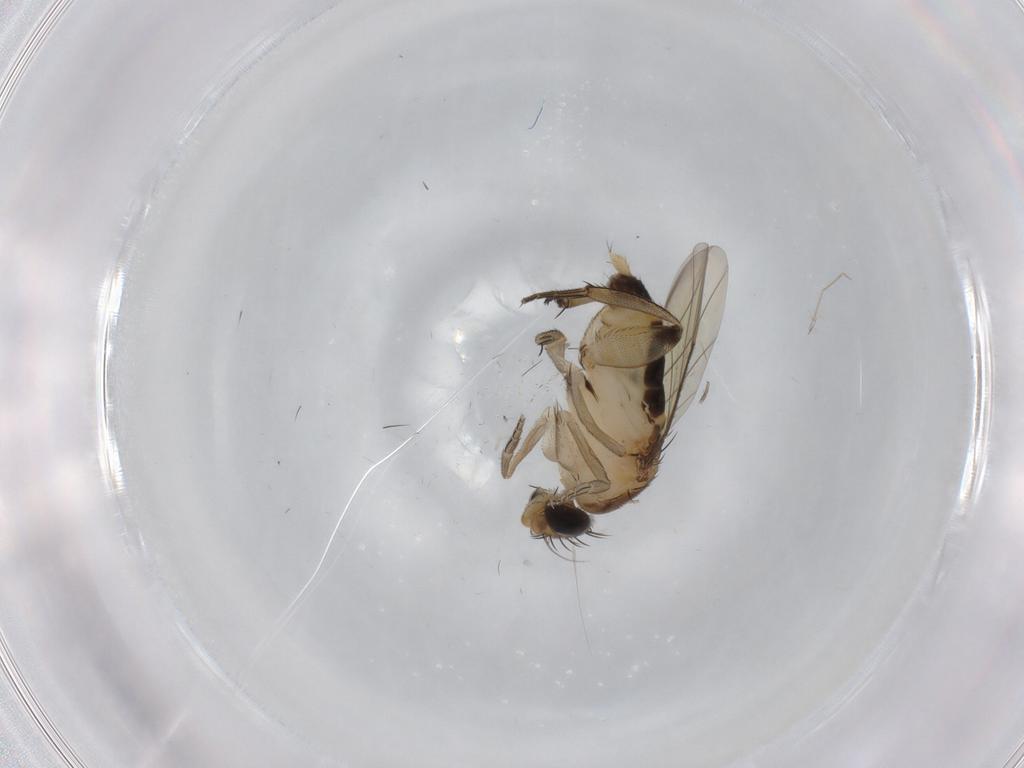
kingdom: Animalia
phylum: Arthropoda
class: Insecta
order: Diptera
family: Phoridae
